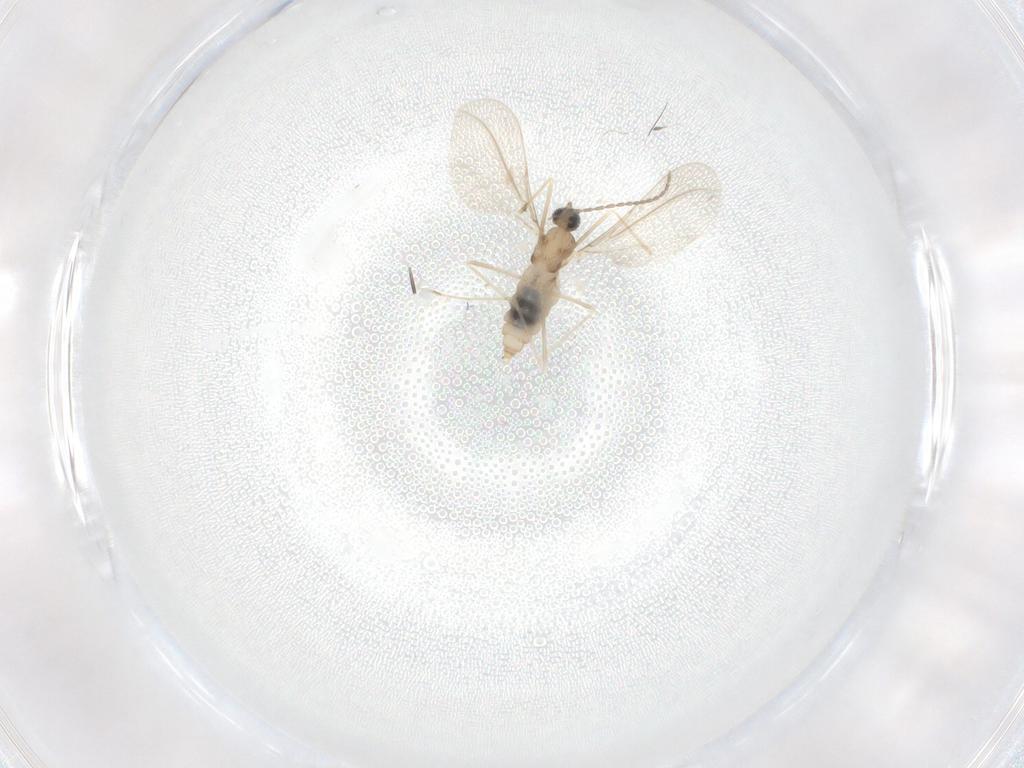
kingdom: Animalia
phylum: Arthropoda
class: Insecta
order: Diptera
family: Cecidomyiidae
